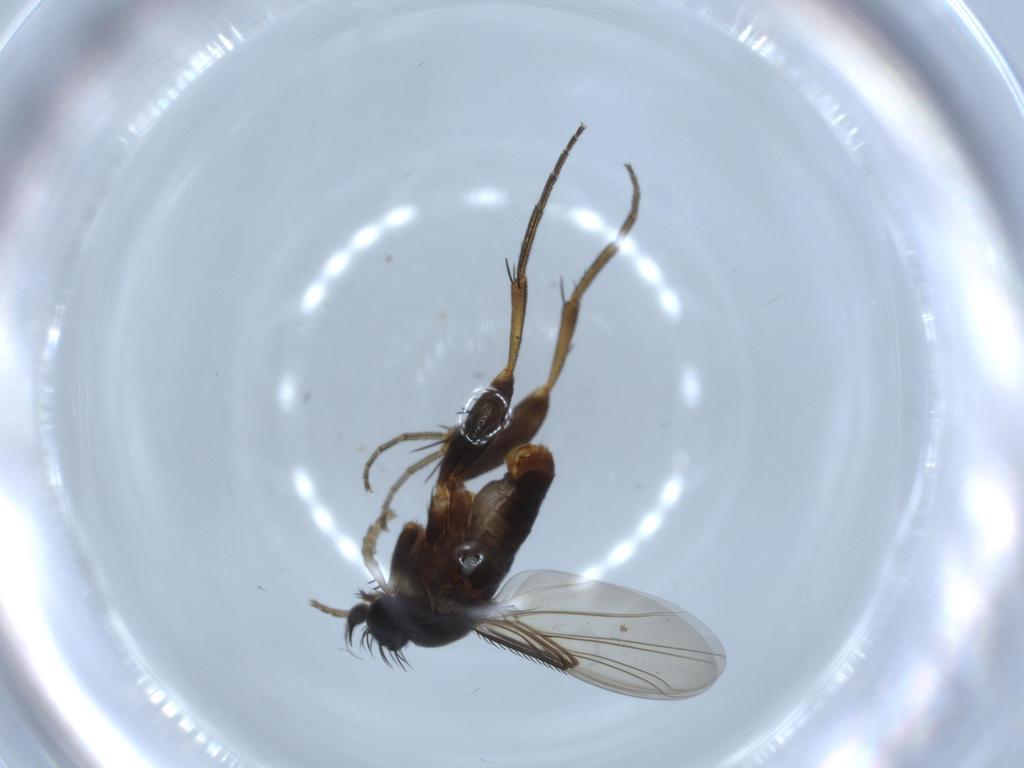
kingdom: Animalia
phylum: Arthropoda
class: Insecta
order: Diptera
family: Phoridae
